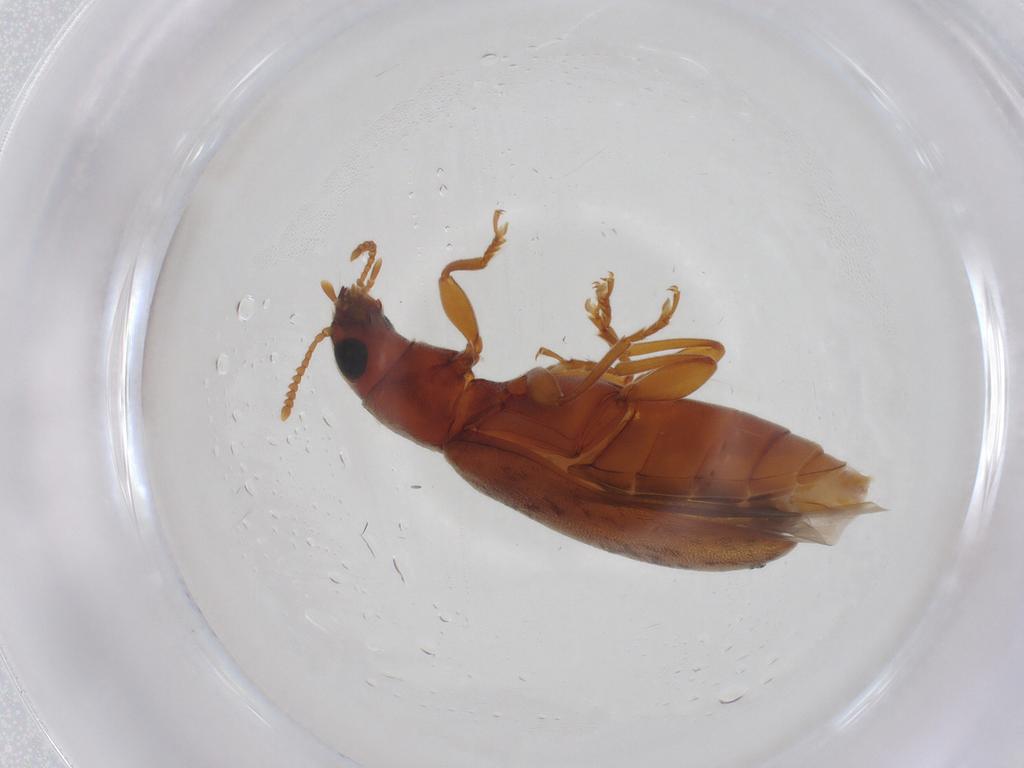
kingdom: Animalia
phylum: Arthropoda
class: Insecta
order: Coleoptera
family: Mycteridae
